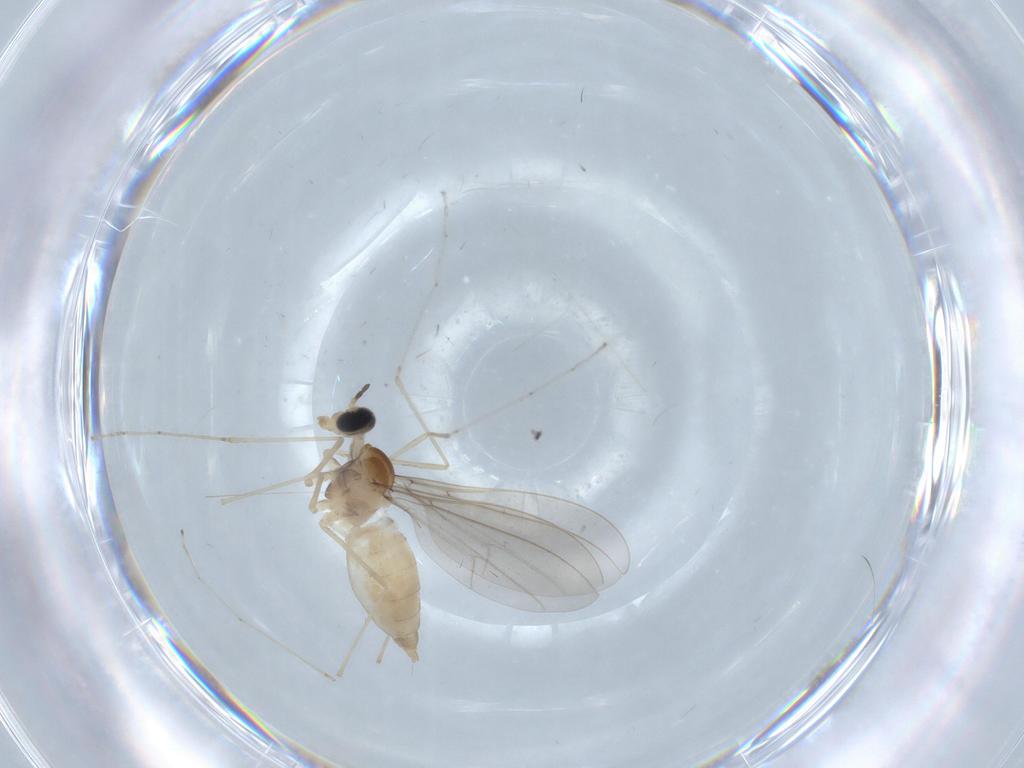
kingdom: Animalia
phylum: Arthropoda
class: Insecta
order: Diptera
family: Cecidomyiidae
